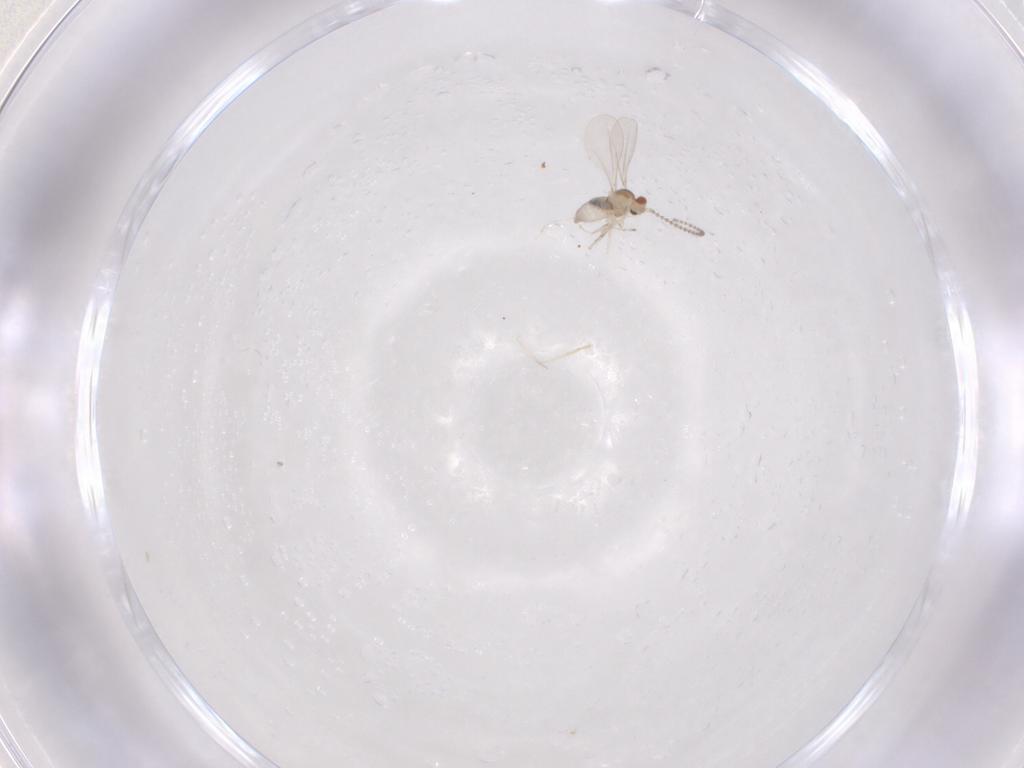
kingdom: Animalia
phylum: Arthropoda
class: Insecta
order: Diptera
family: Cecidomyiidae
